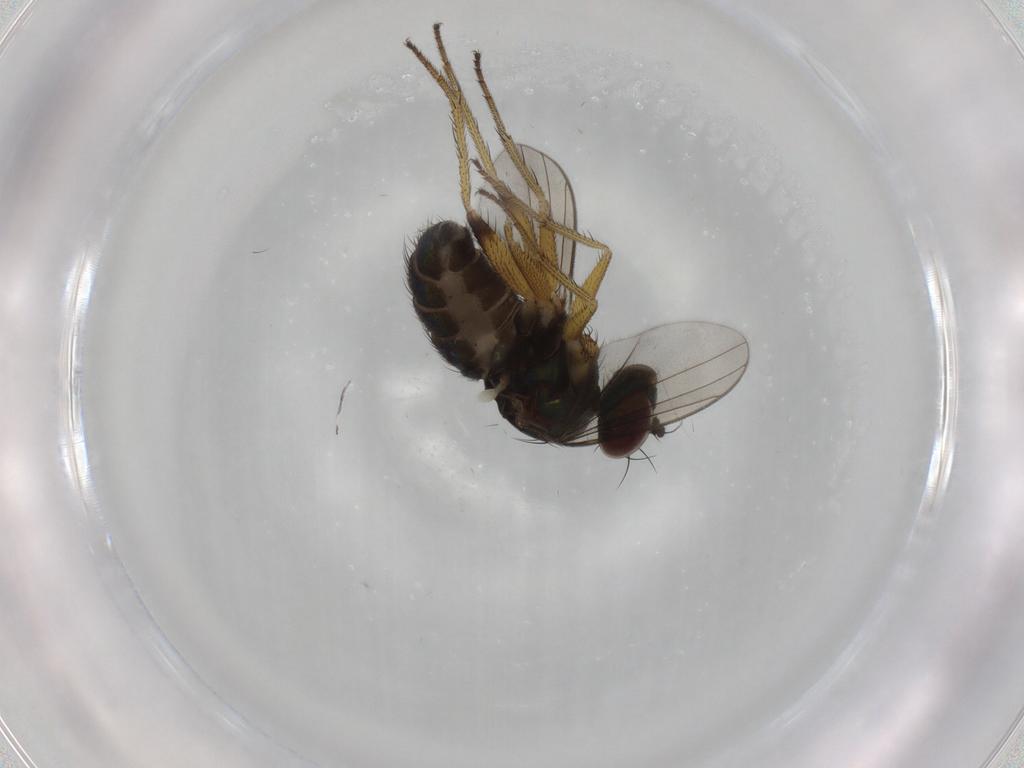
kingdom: Animalia
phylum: Arthropoda
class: Insecta
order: Diptera
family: Dolichopodidae
